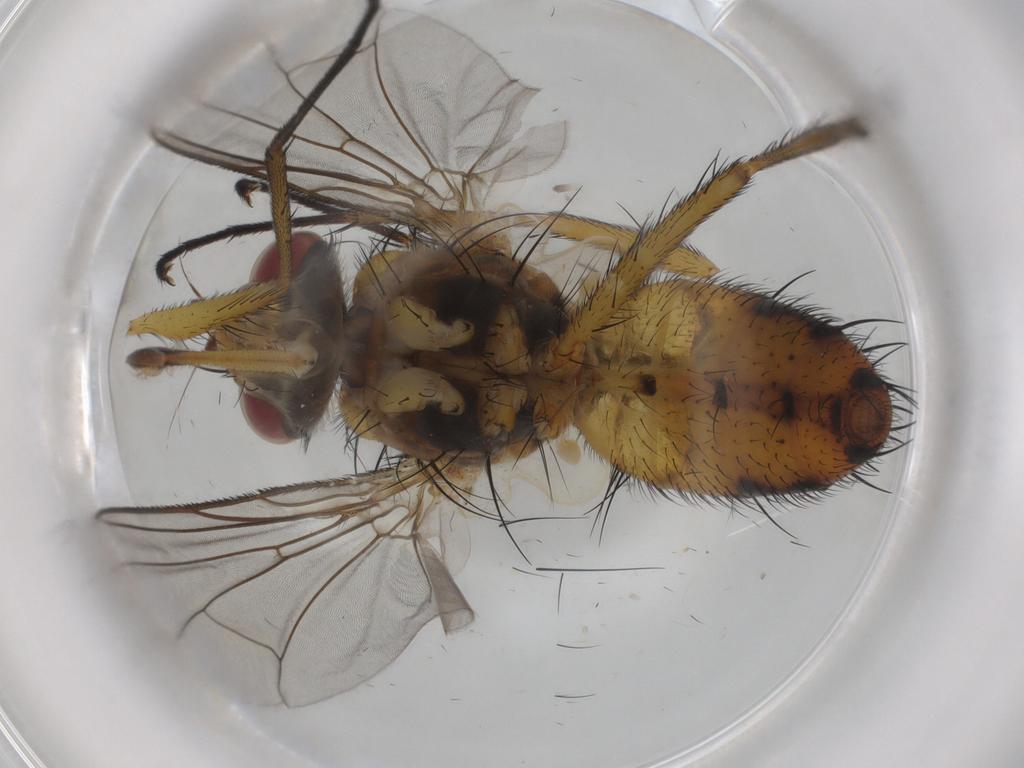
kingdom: Animalia
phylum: Arthropoda
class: Insecta
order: Diptera
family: Tachinidae
